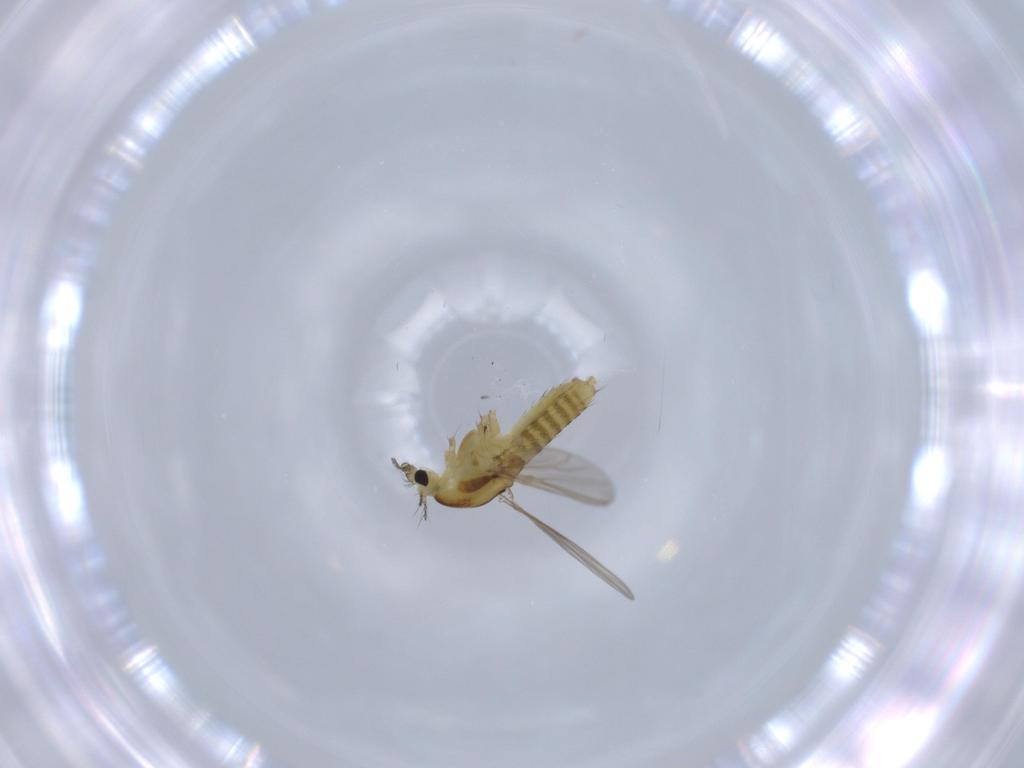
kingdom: Animalia
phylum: Arthropoda
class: Insecta
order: Diptera
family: Chironomidae
